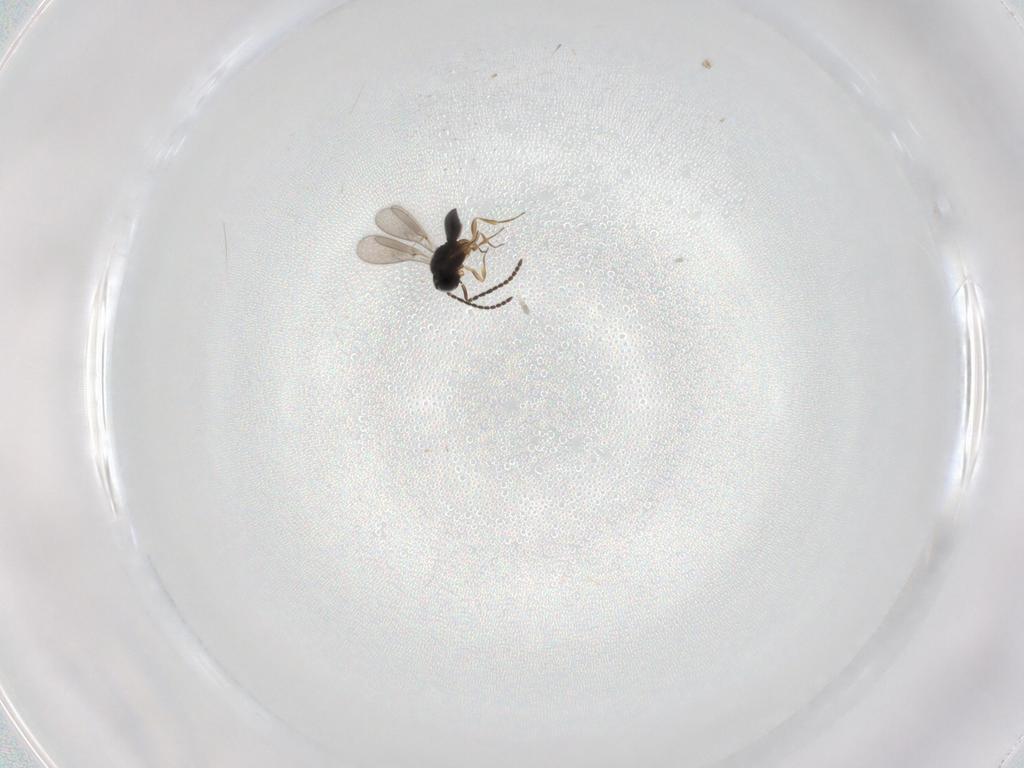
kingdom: Animalia
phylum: Arthropoda
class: Insecta
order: Hymenoptera
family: Scelionidae
